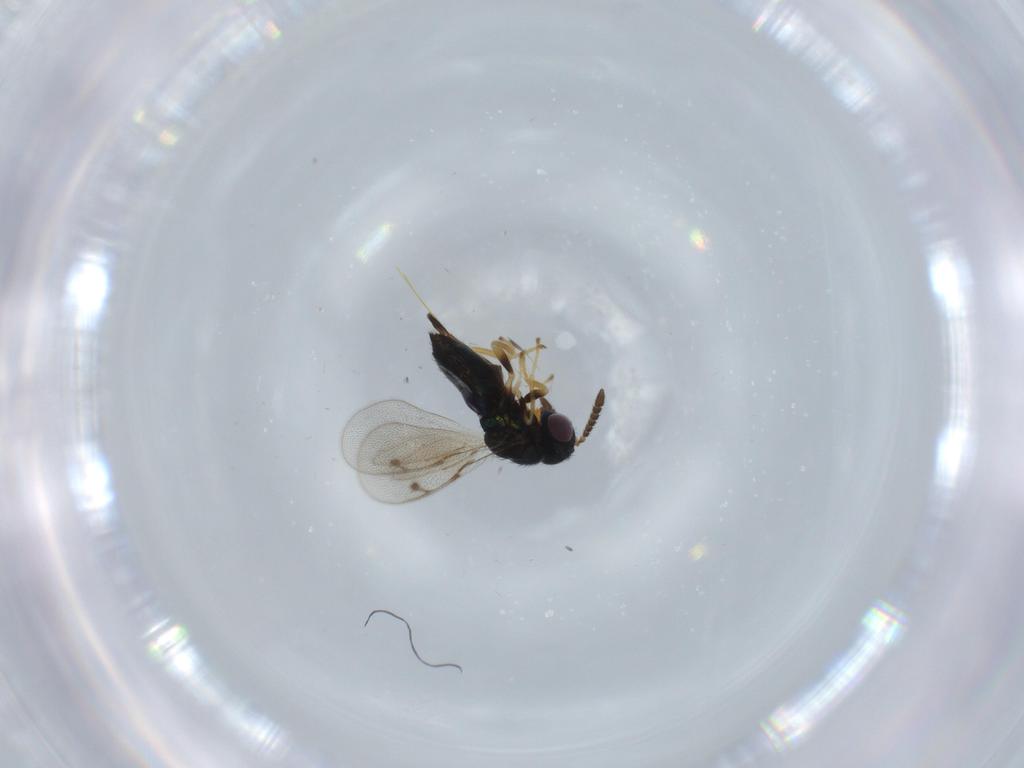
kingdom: Animalia
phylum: Arthropoda
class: Insecta
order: Hymenoptera
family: Pirenidae
